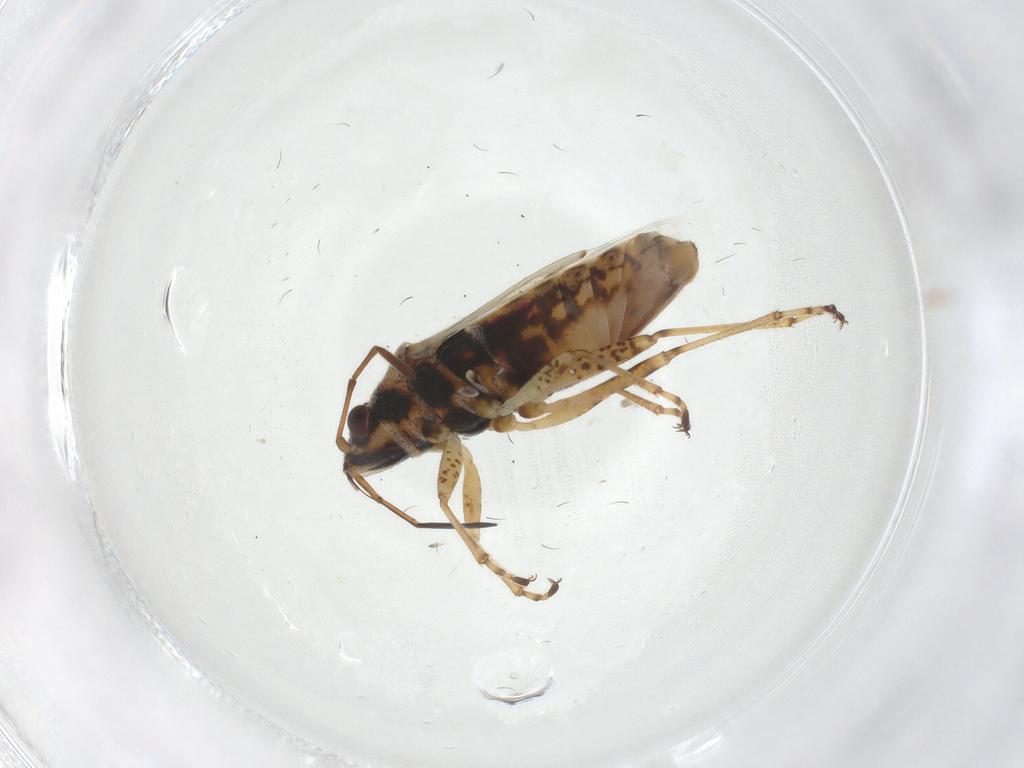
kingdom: Animalia
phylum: Arthropoda
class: Insecta
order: Hemiptera
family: Lygaeidae
